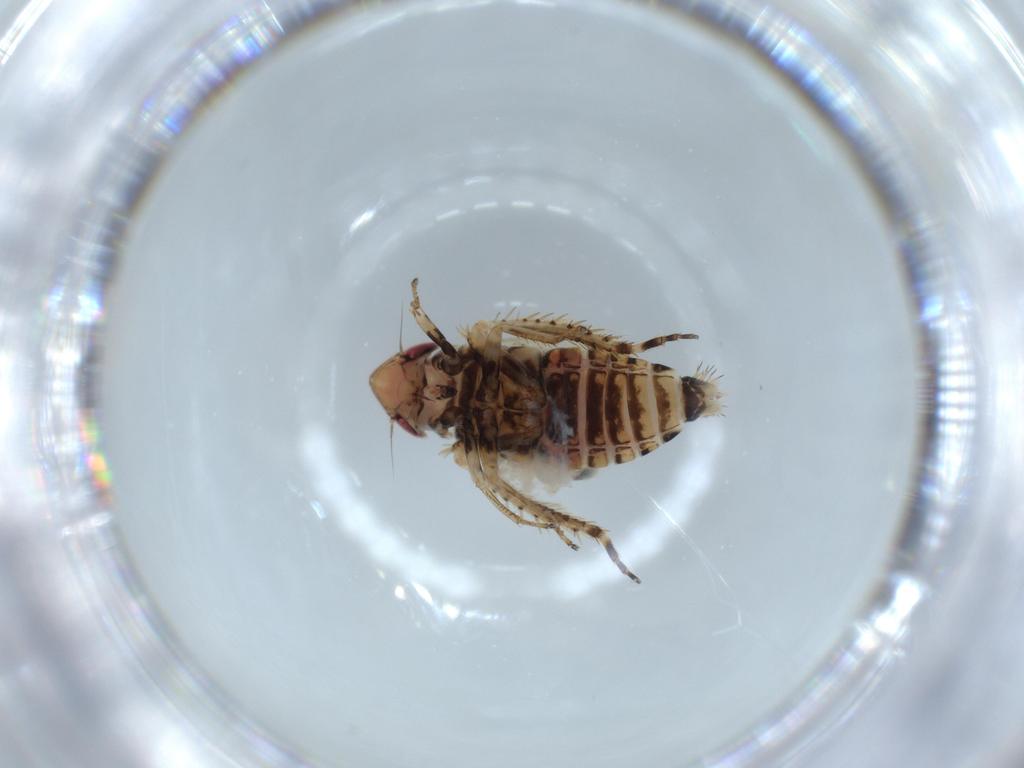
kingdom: Animalia
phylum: Arthropoda
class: Insecta
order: Hemiptera
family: Cicadellidae
